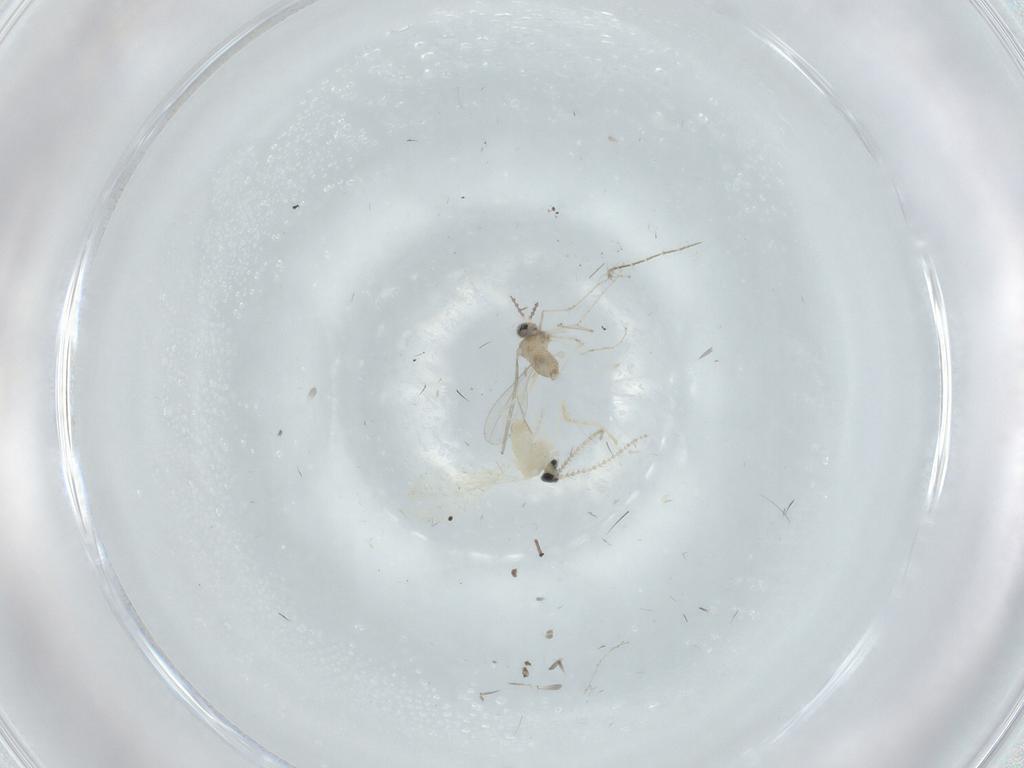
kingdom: Animalia
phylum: Arthropoda
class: Insecta
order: Diptera
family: Cecidomyiidae
